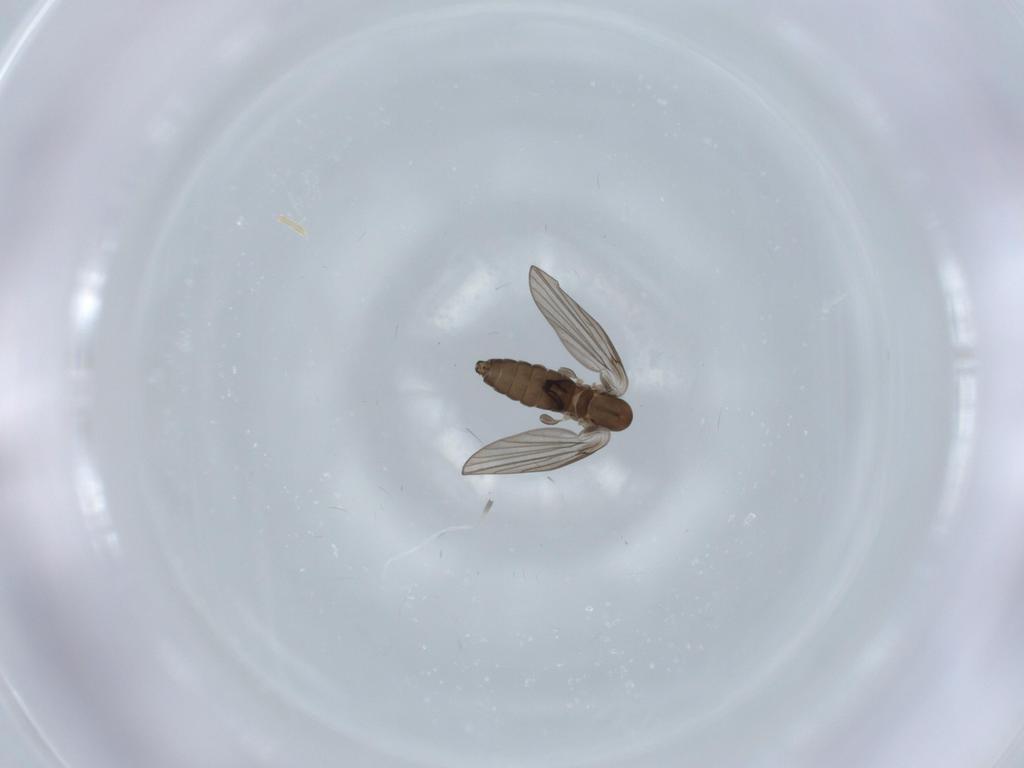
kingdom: Animalia
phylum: Arthropoda
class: Insecta
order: Diptera
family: Psychodidae
